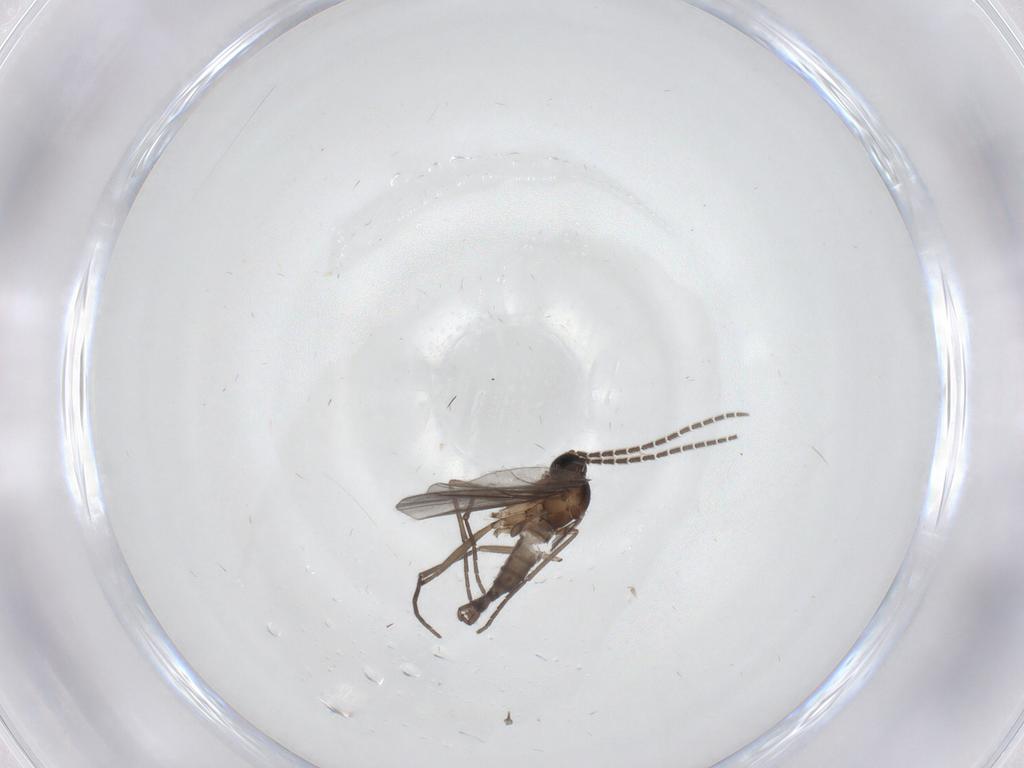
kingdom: Animalia
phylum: Arthropoda
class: Insecta
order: Diptera
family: Sciaridae
